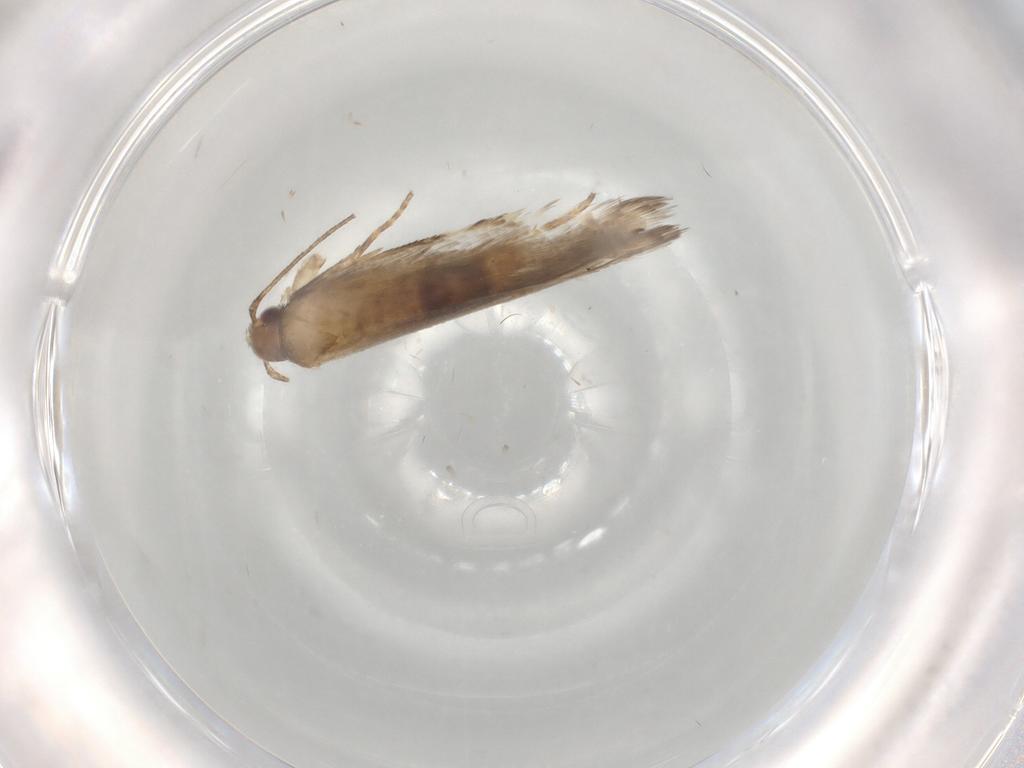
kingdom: Animalia
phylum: Arthropoda
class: Insecta
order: Lepidoptera
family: Gelechiidae
